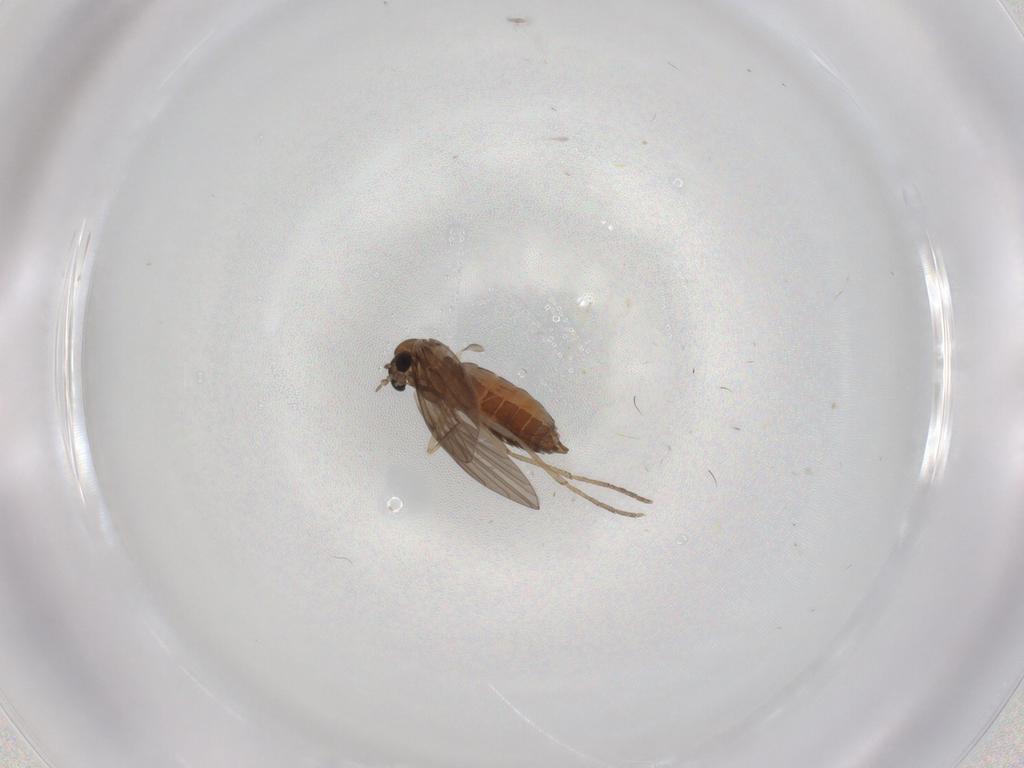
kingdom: Animalia
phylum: Arthropoda
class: Insecta
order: Diptera
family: Psychodidae
